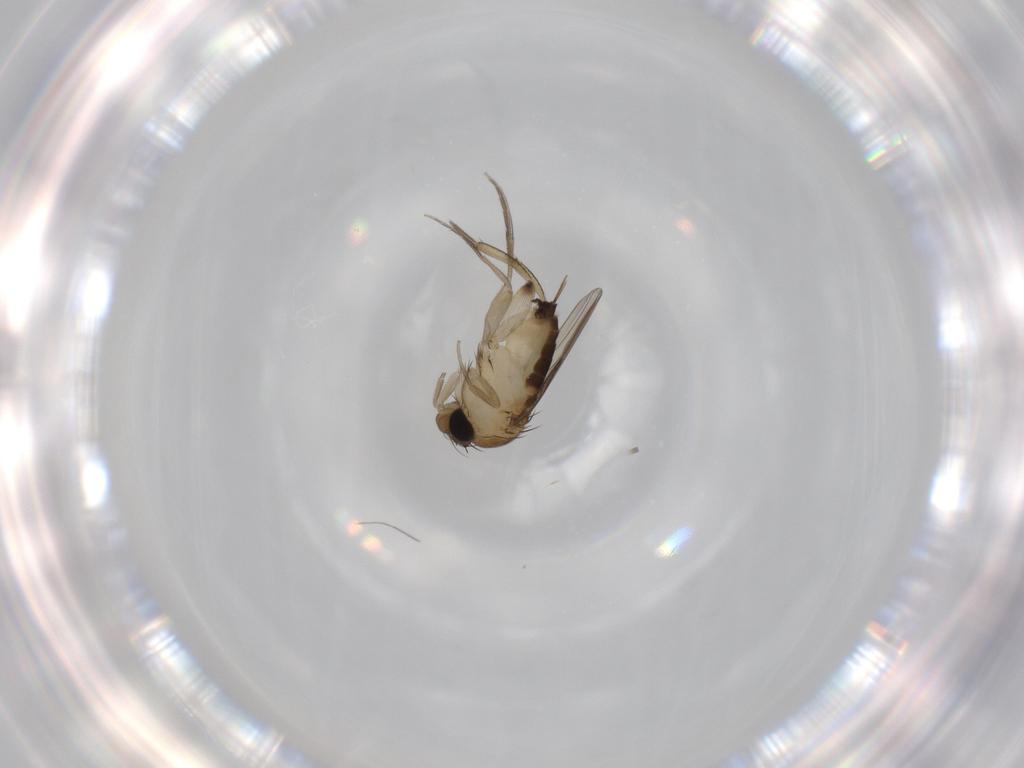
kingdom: Animalia
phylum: Arthropoda
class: Insecta
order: Diptera
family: Phoridae
